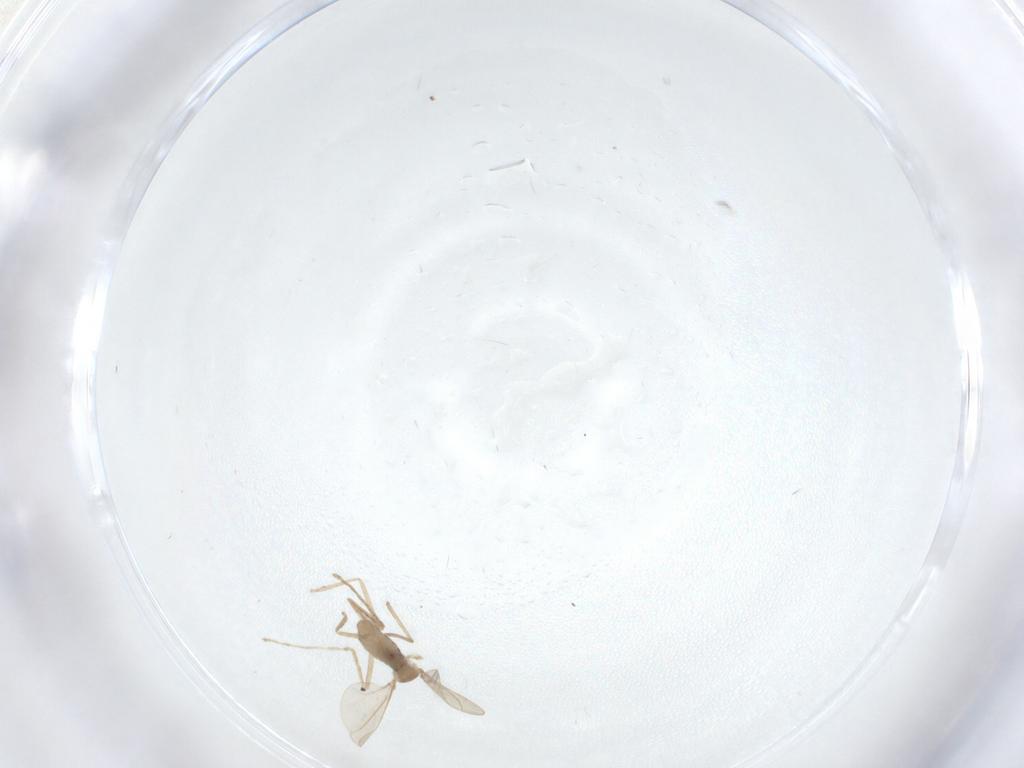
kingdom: Animalia
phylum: Arthropoda
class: Insecta
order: Diptera
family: Cecidomyiidae
